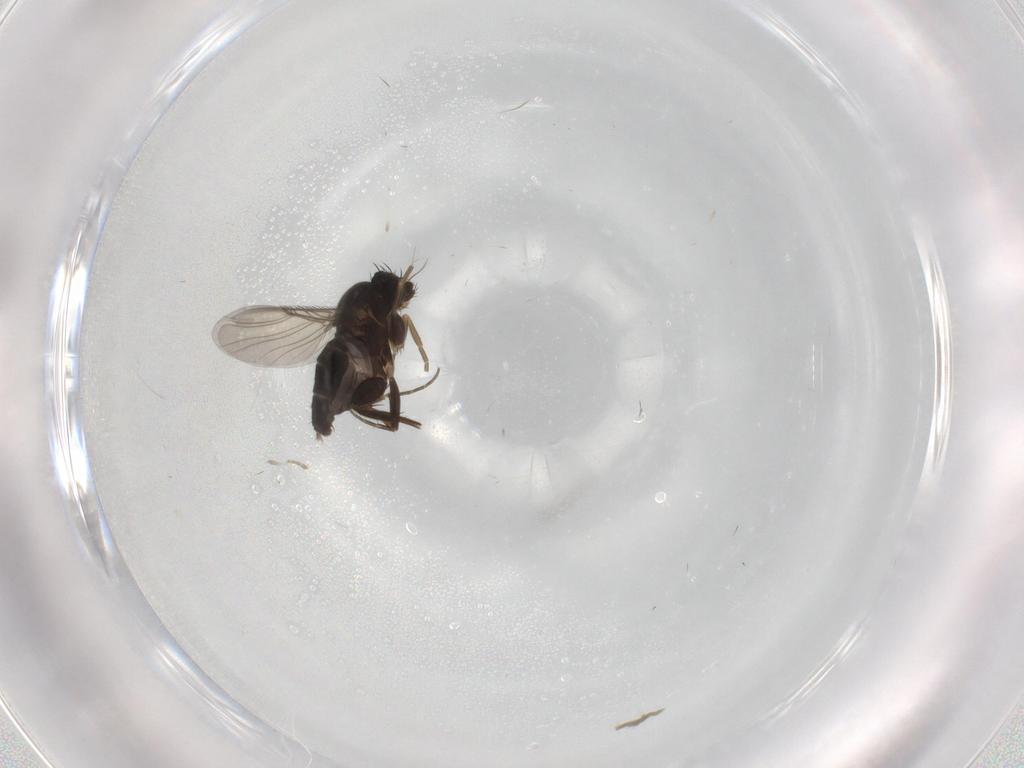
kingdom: Animalia
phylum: Arthropoda
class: Insecta
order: Diptera
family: Phoridae
